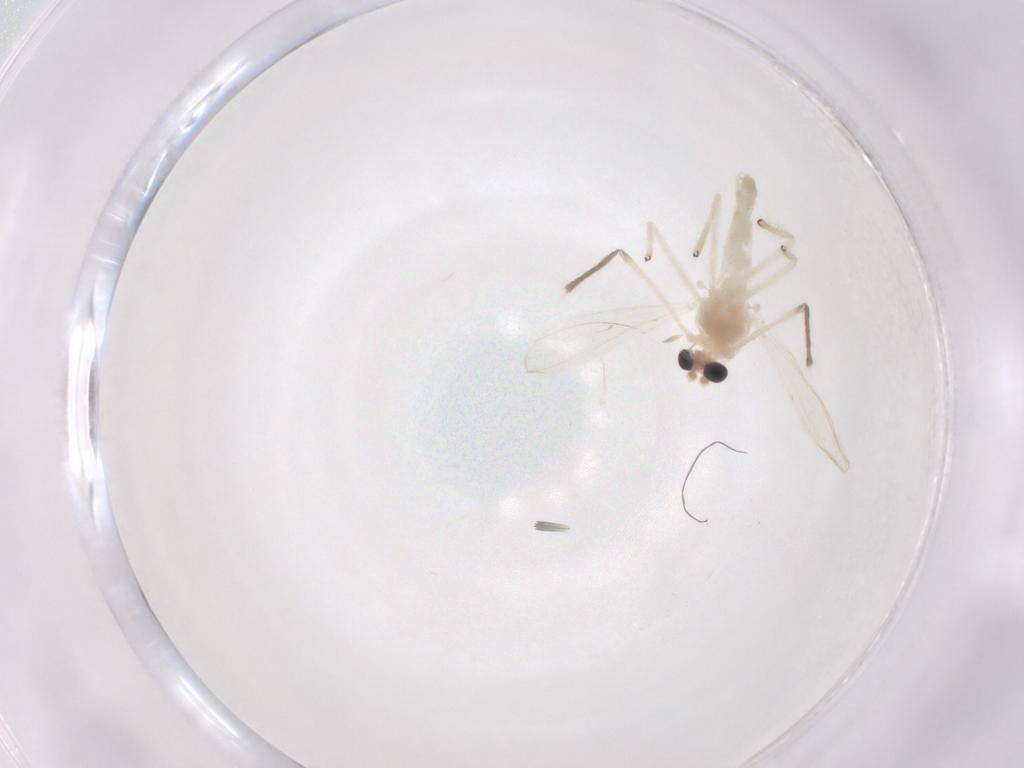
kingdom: Animalia
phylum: Arthropoda
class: Insecta
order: Diptera
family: Chironomidae
